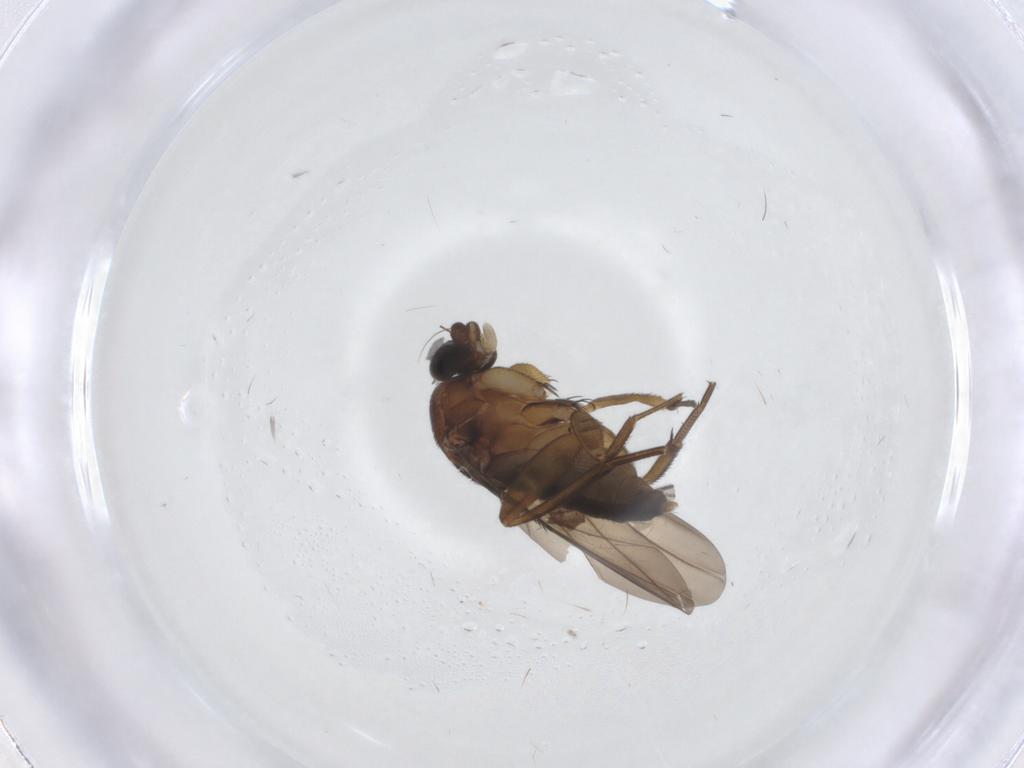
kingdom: Animalia
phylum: Arthropoda
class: Insecta
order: Diptera
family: Phoridae
